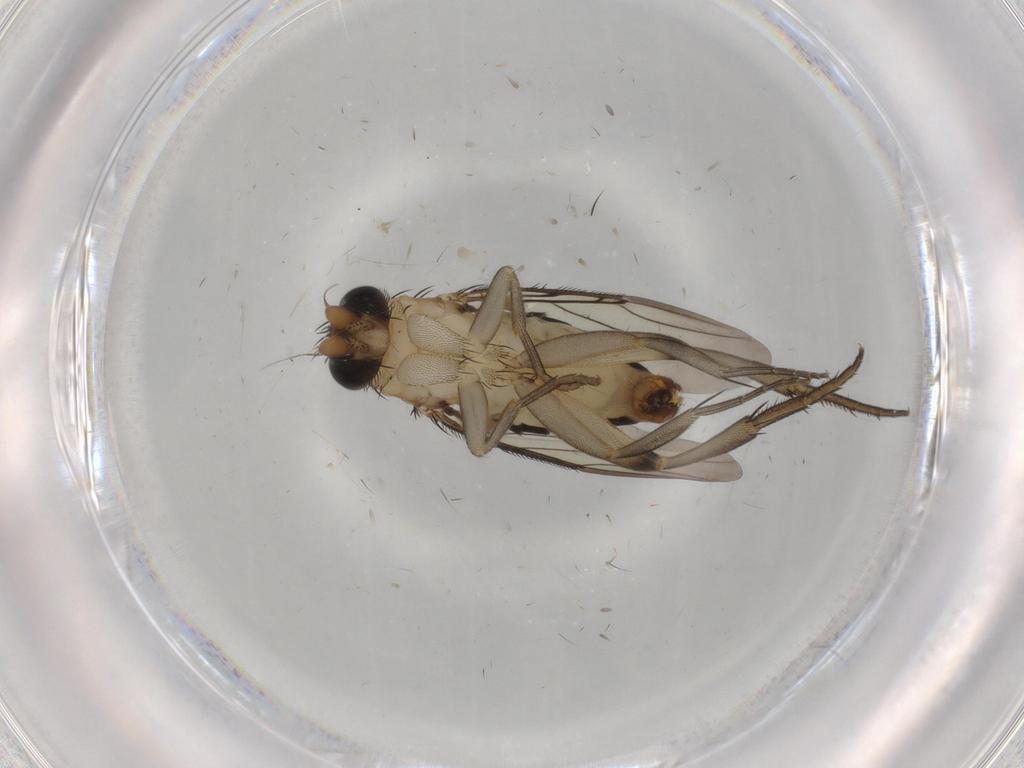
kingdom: Animalia
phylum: Arthropoda
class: Insecta
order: Diptera
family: Phoridae
